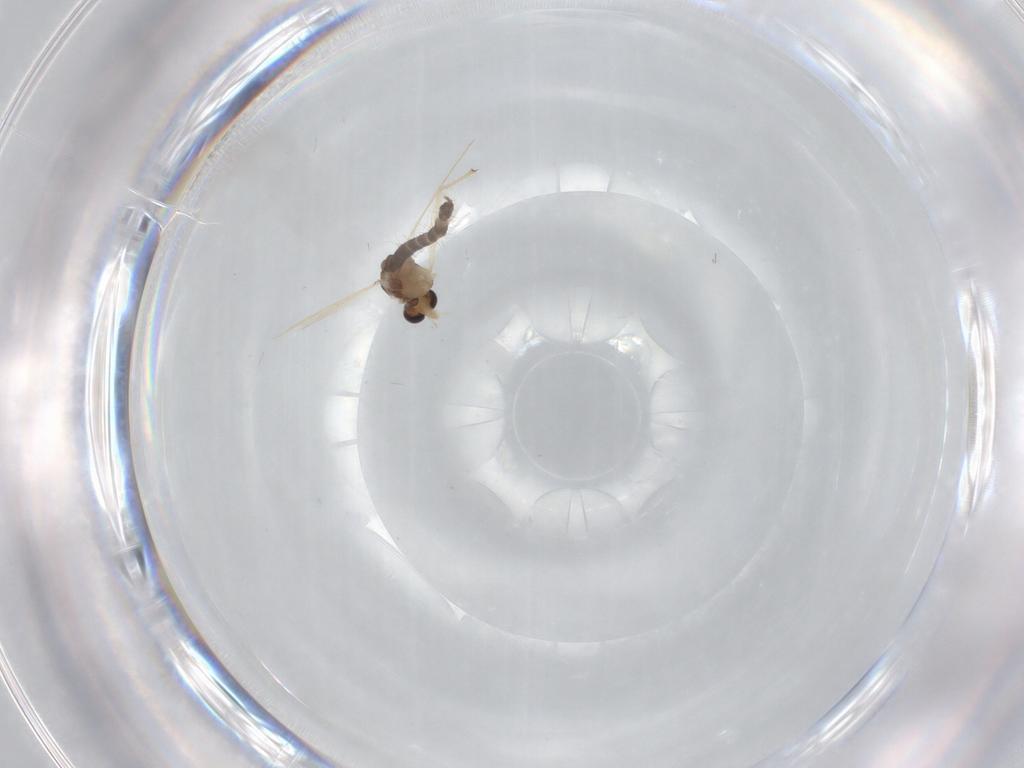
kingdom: Animalia
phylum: Arthropoda
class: Insecta
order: Diptera
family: Chironomidae
